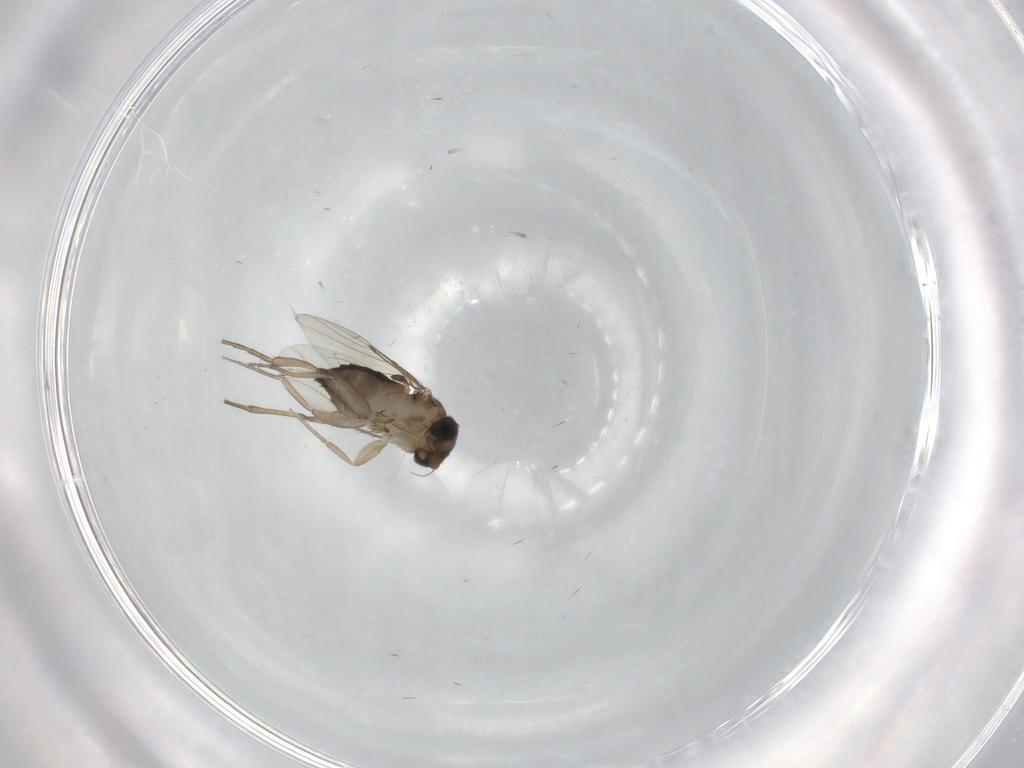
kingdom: Animalia
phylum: Arthropoda
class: Insecta
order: Diptera
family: Phoridae
